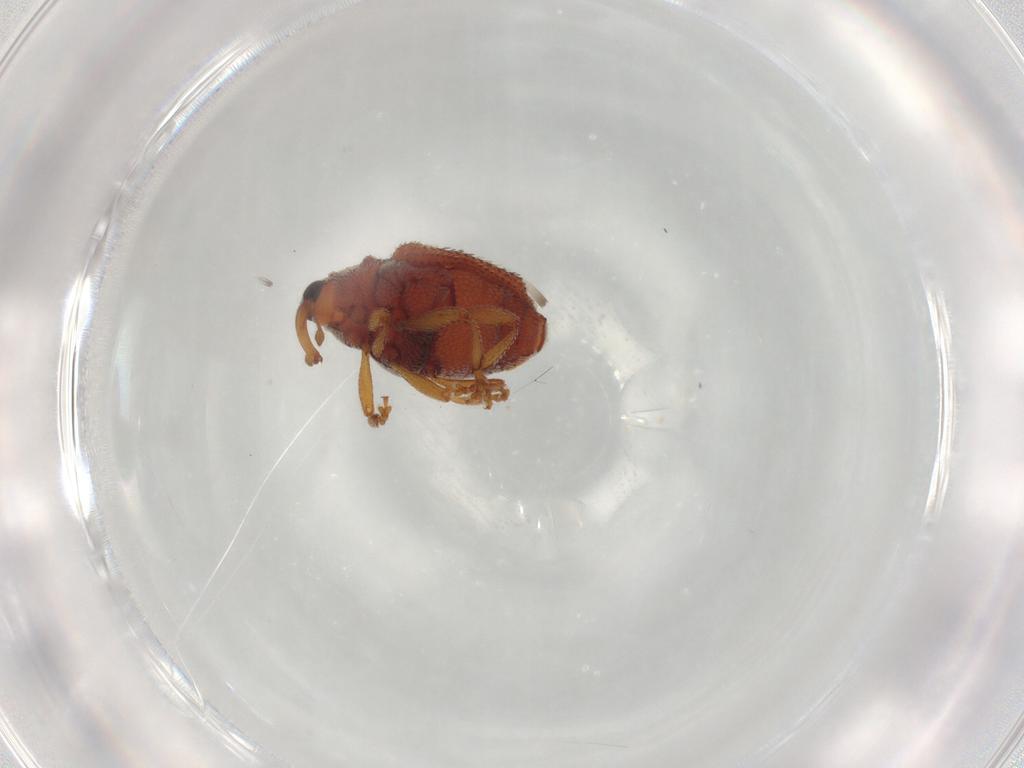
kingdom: Animalia
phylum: Arthropoda
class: Insecta
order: Coleoptera
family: Curculionidae
